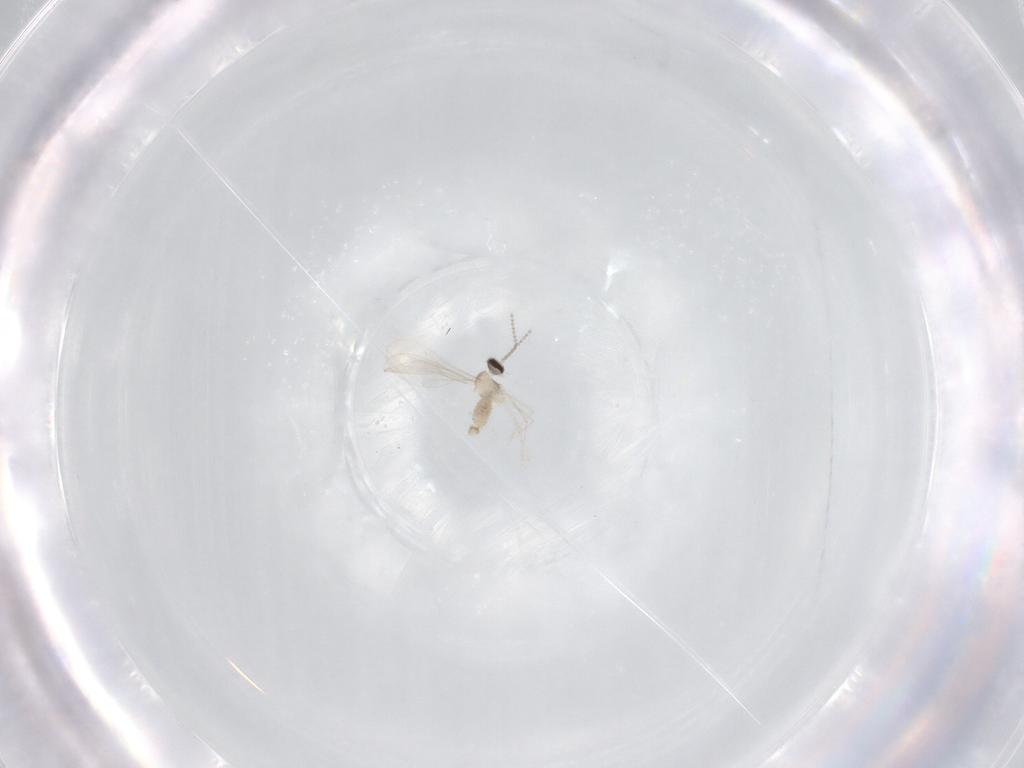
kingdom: Animalia
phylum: Arthropoda
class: Insecta
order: Diptera
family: Cecidomyiidae
